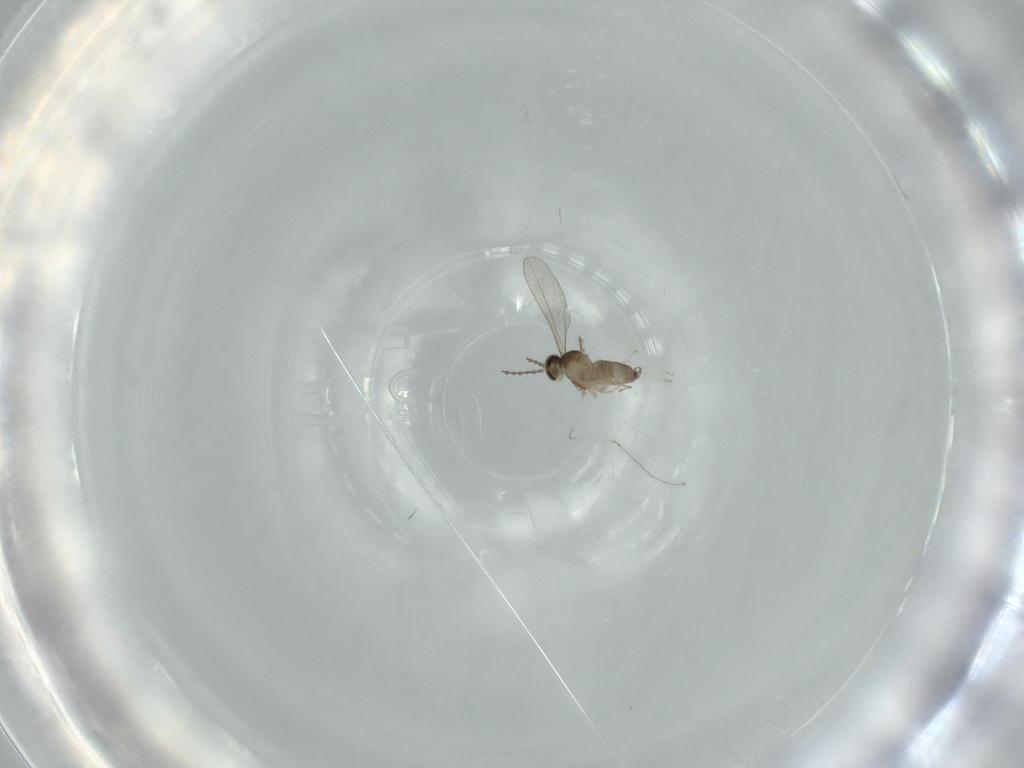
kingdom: Animalia
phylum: Arthropoda
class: Insecta
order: Diptera
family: Cecidomyiidae
